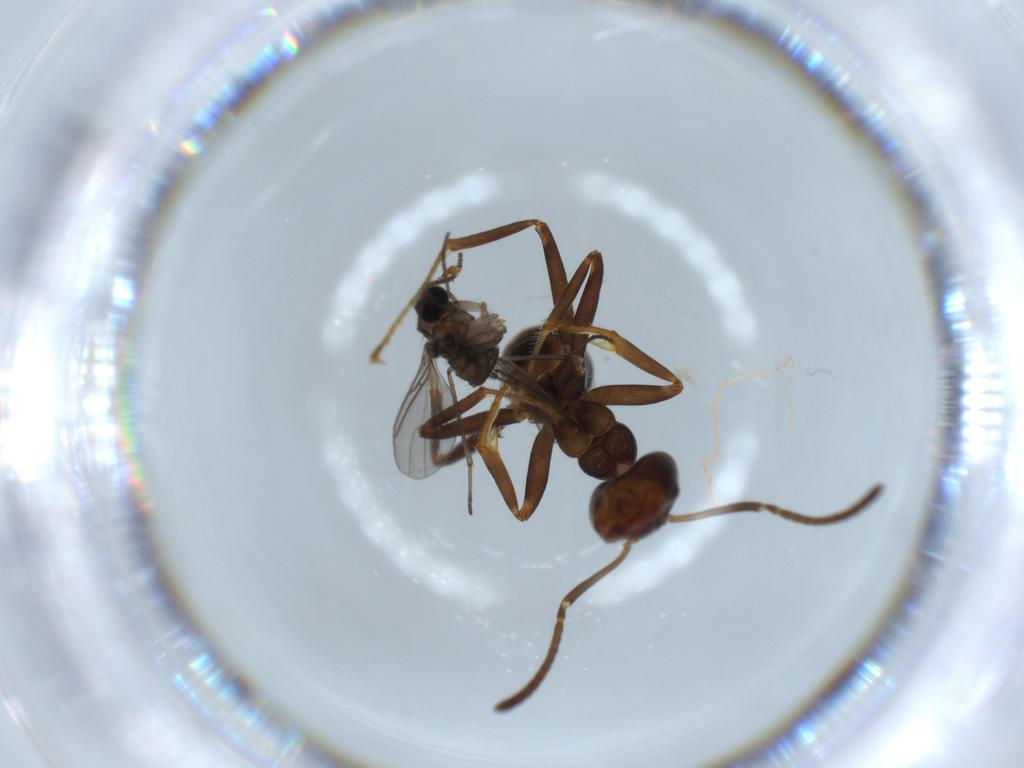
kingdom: Animalia
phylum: Arthropoda
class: Insecta
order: Hymenoptera
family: Formicidae
